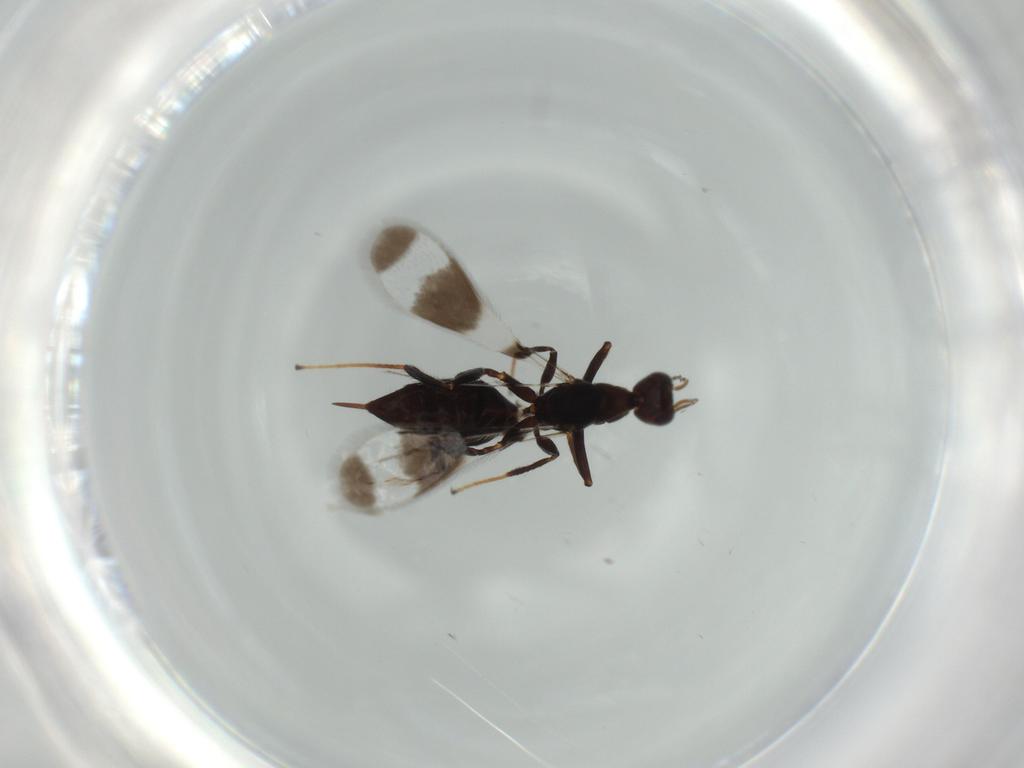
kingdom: Animalia
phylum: Arthropoda
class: Insecta
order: Hymenoptera
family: Mymaridae
